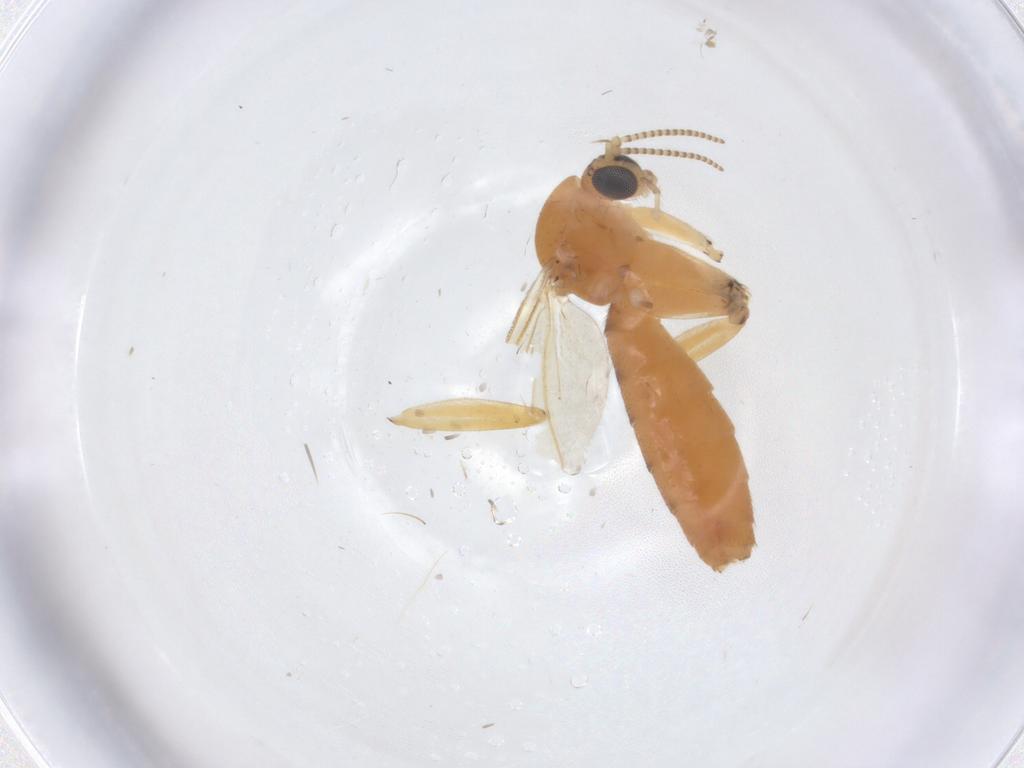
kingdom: Animalia
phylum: Arthropoda
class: Insecta
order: Diptera
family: Mycetophilidae
